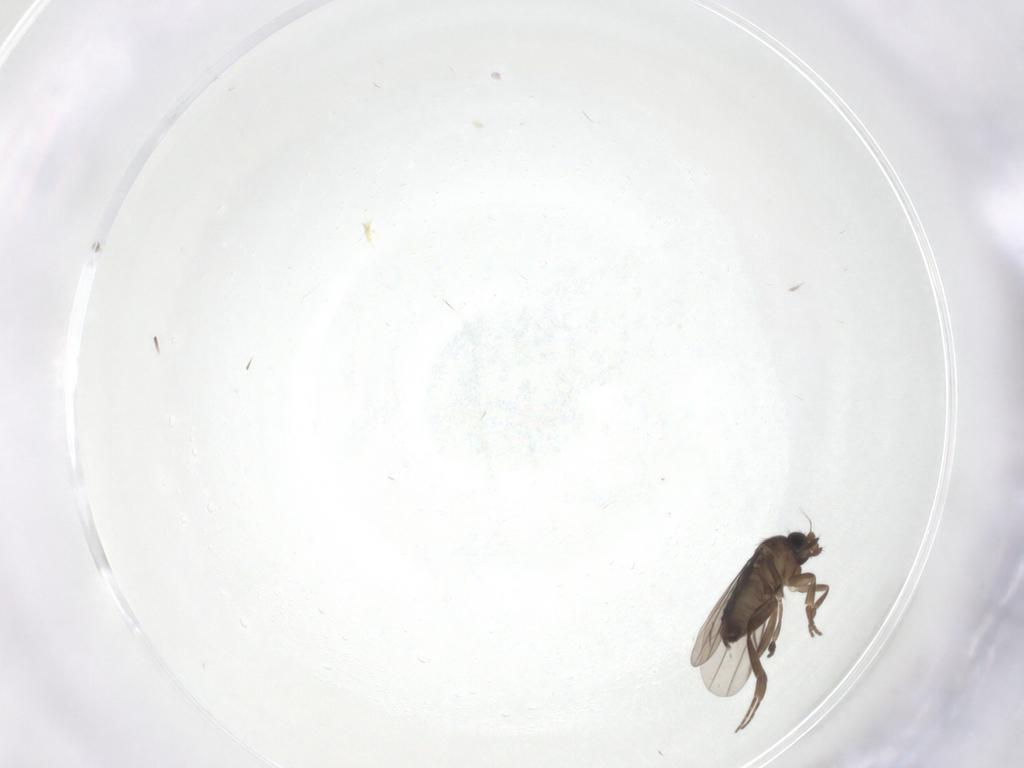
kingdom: Animalia
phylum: Arthropoda
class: Insecta
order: Diptera
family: Phoridae
